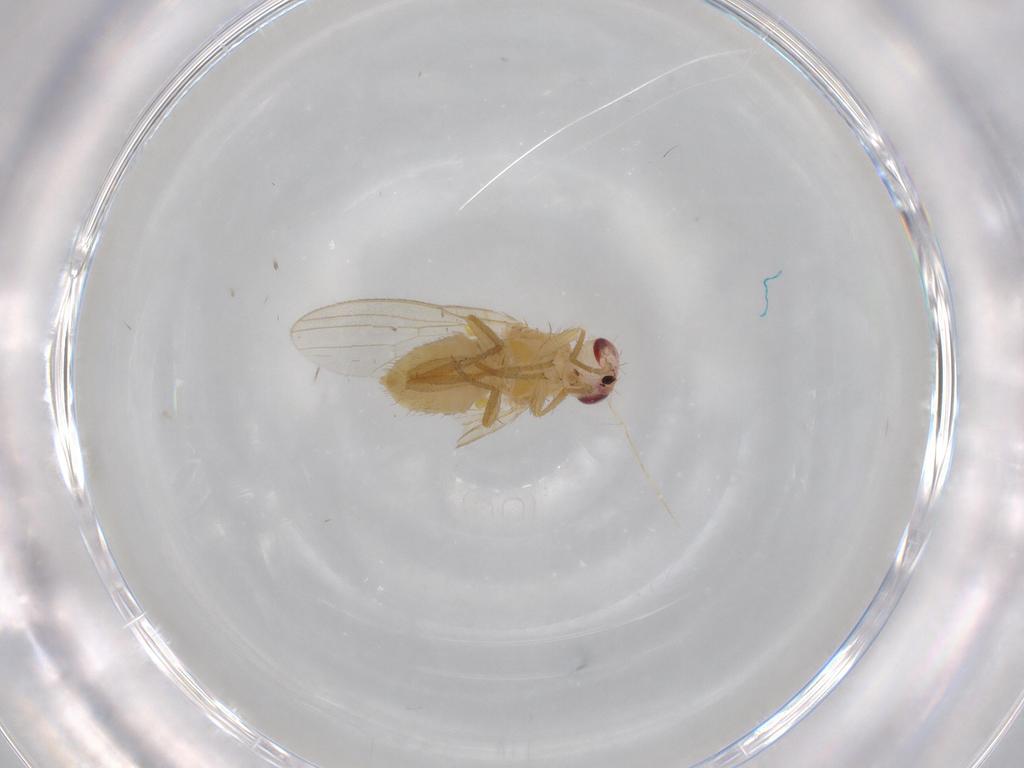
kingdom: Animalia
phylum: Arthropoda
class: Insecta
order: Diptera
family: Chyromyidae
